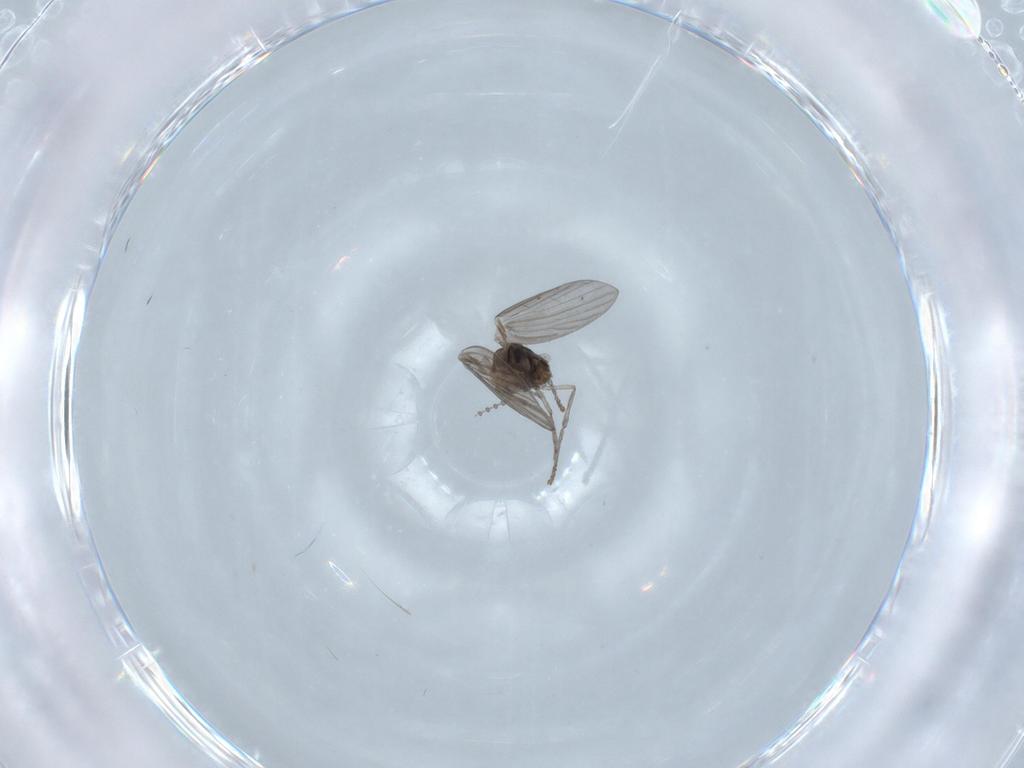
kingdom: Animalia
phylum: Arthropoda
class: Insecta
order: Diptera
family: Psychodidae
